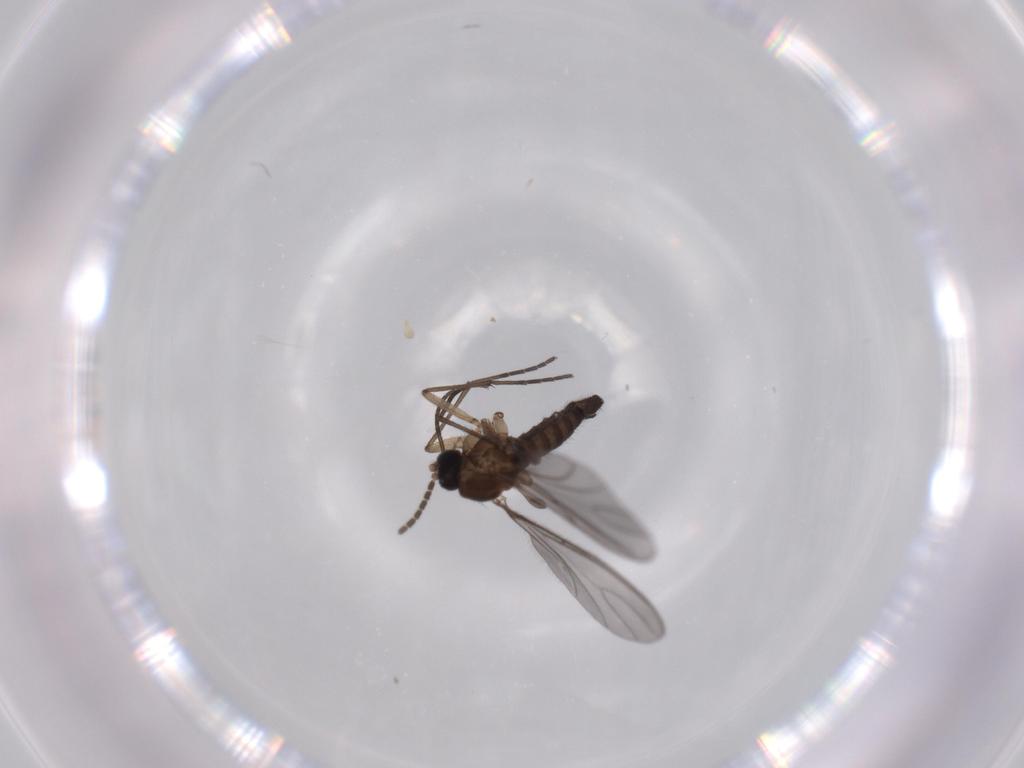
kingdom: Animalia
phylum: Arthropoda
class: Insecta
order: Diptera
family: Sciaridae
